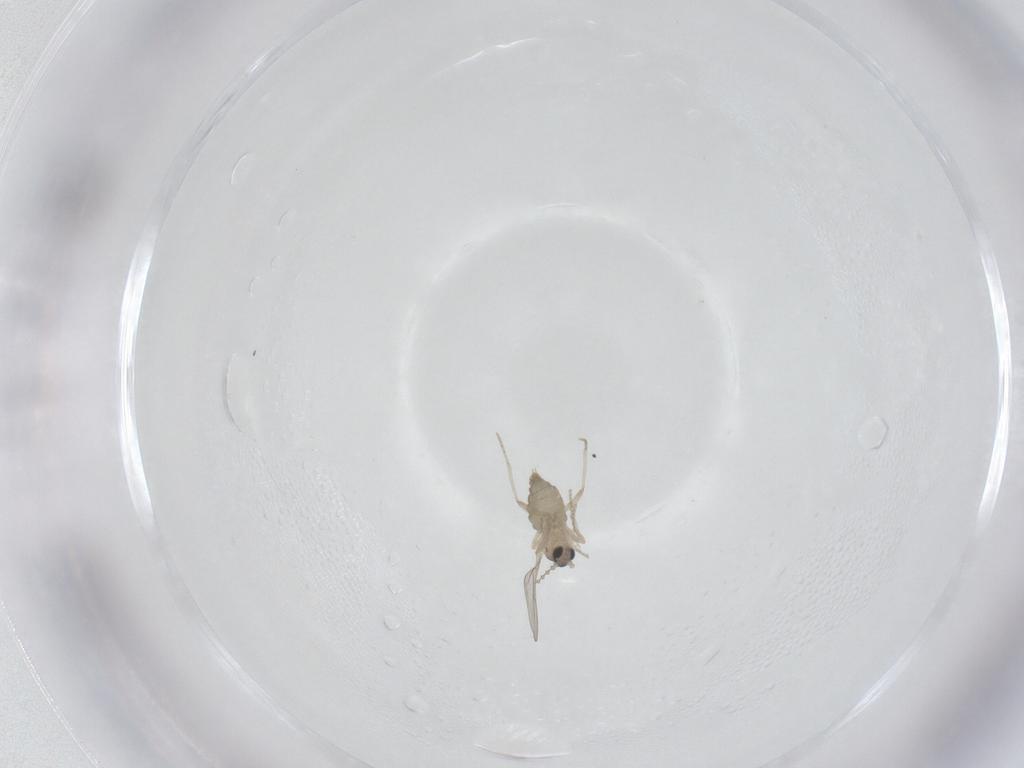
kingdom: Animalia
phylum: Arthropoda
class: Insecta
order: Diptera
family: Cecidomyiidae
